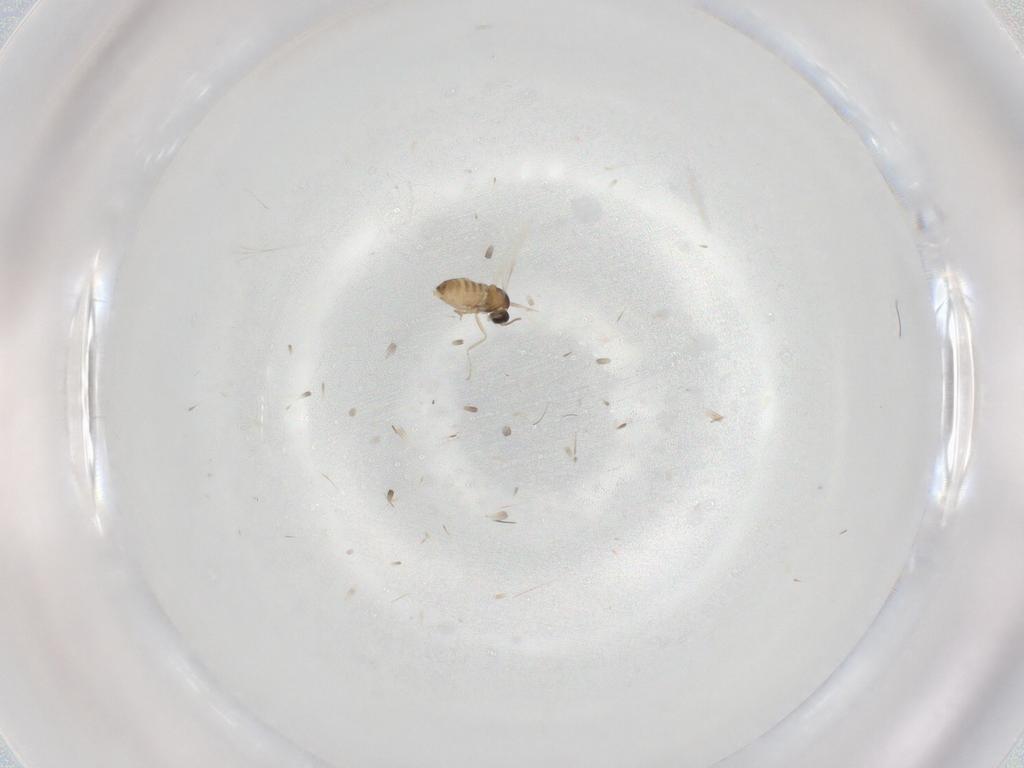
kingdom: Animalia
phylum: Arthropoda
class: Insecta
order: Diptera
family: Cecidomyiidae
